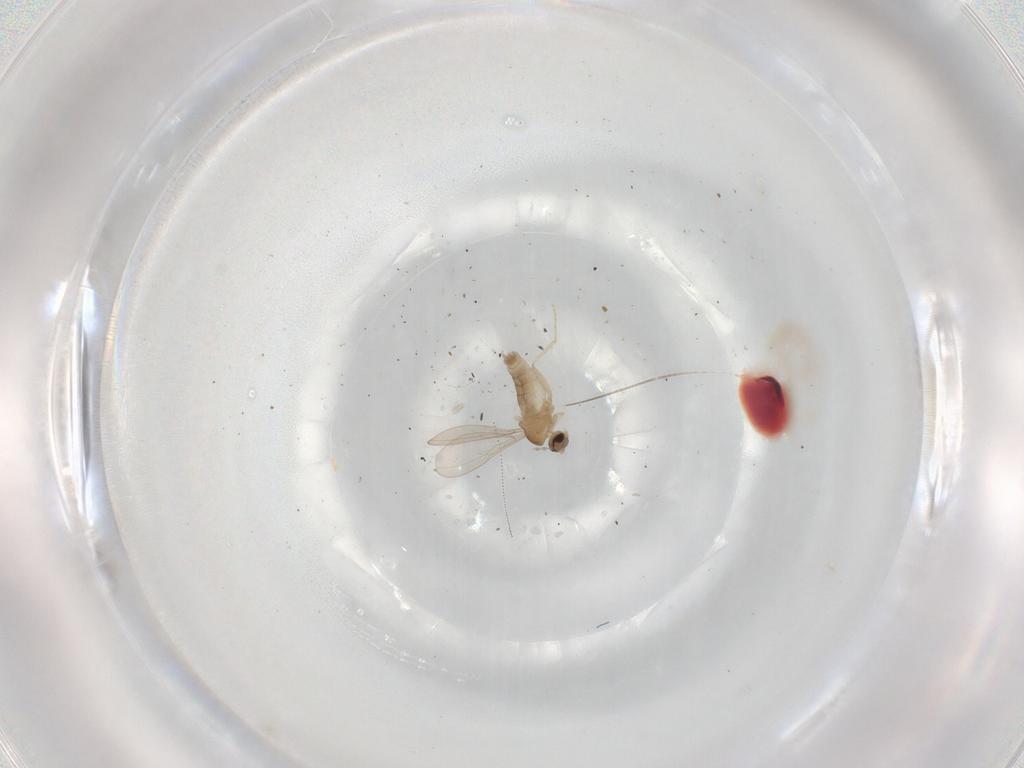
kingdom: Animalia
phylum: Arthropoda
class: Insecta
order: Diptera
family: Cecidomyiidae
